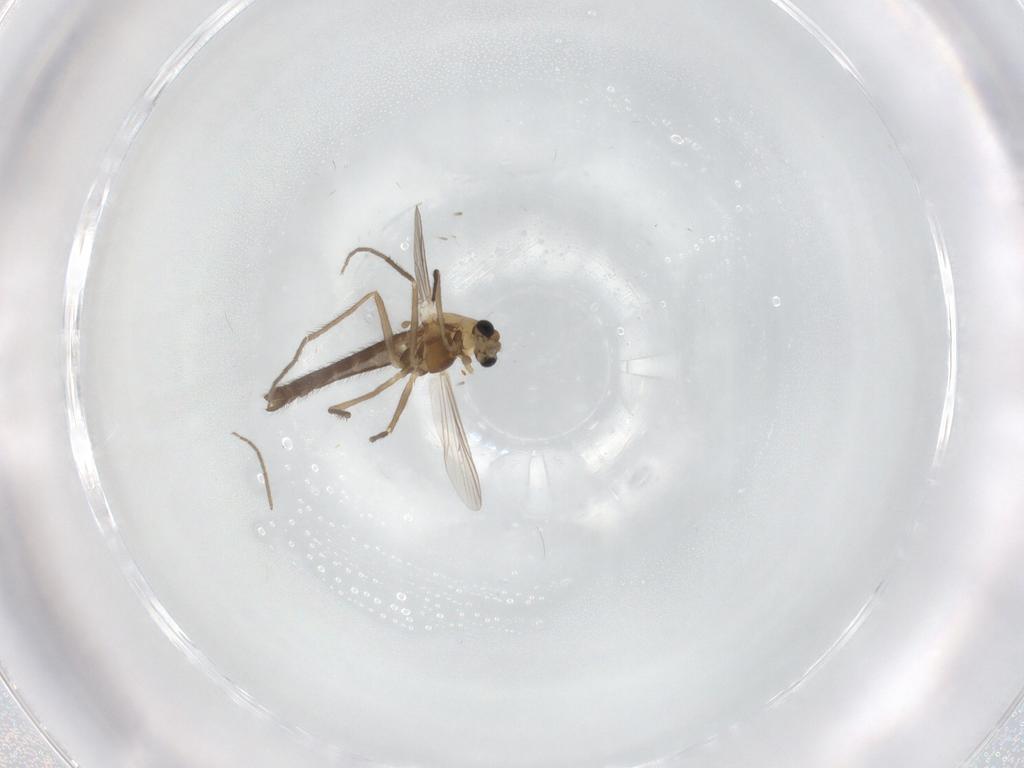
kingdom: Animalia
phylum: Arthropoda
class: Insecta
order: Diptera
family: Chironomidae
